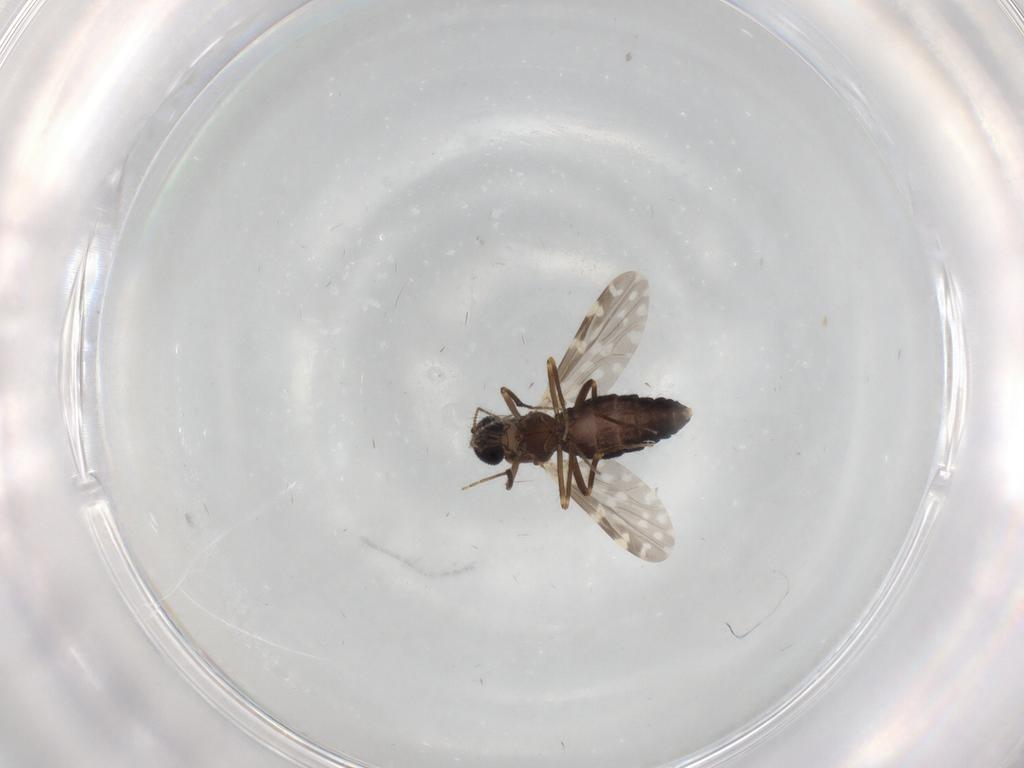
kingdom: Animalia
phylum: Arthropoda
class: Insecta
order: Diptera
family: Ceratopogonidae
